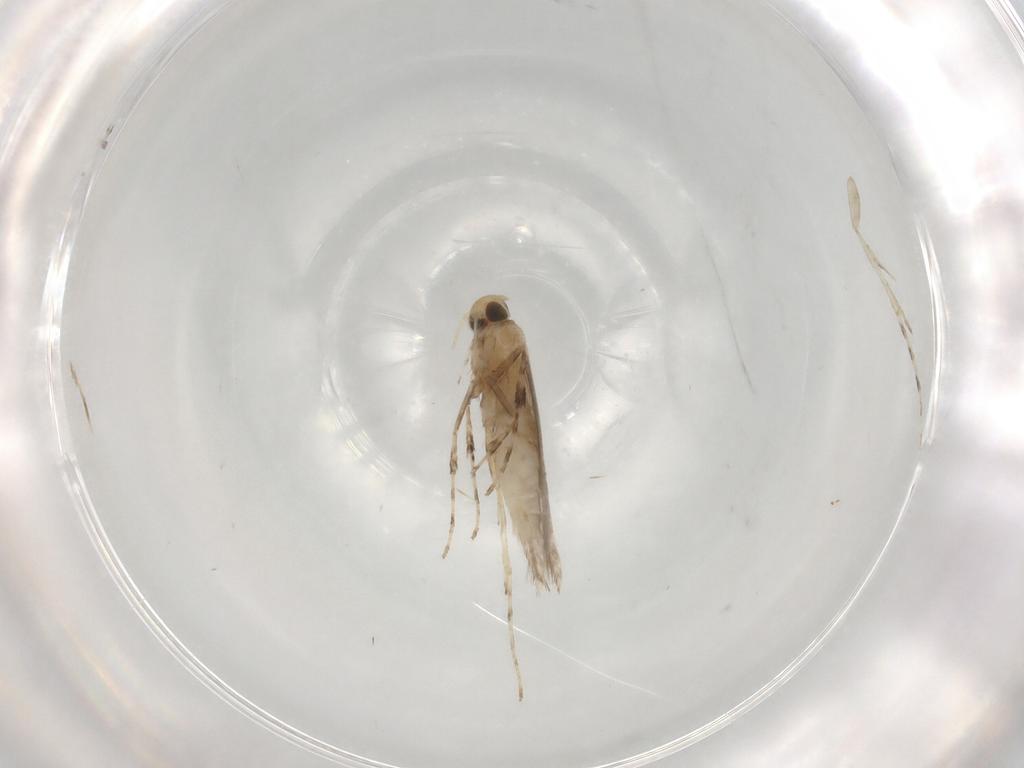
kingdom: Animalia
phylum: Arthropoda
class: Insecta
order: Lepidoptera
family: Gracillariidae
